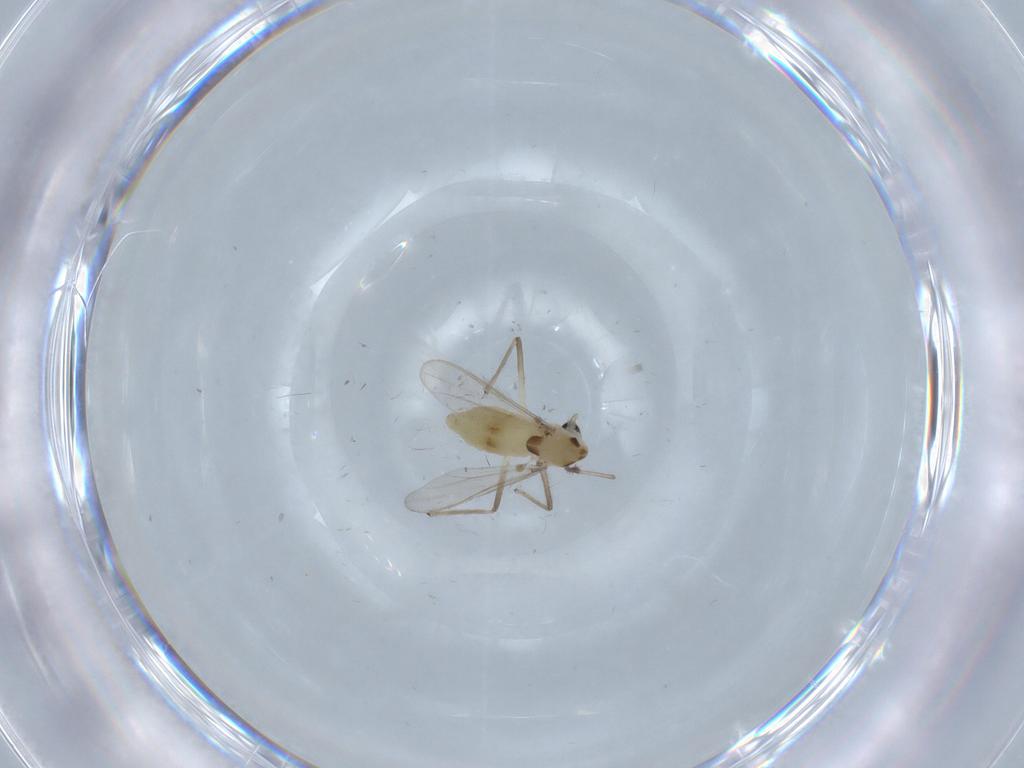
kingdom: Animalia
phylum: Arthropoda
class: Insecta
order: Diptera
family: Chironomidae
